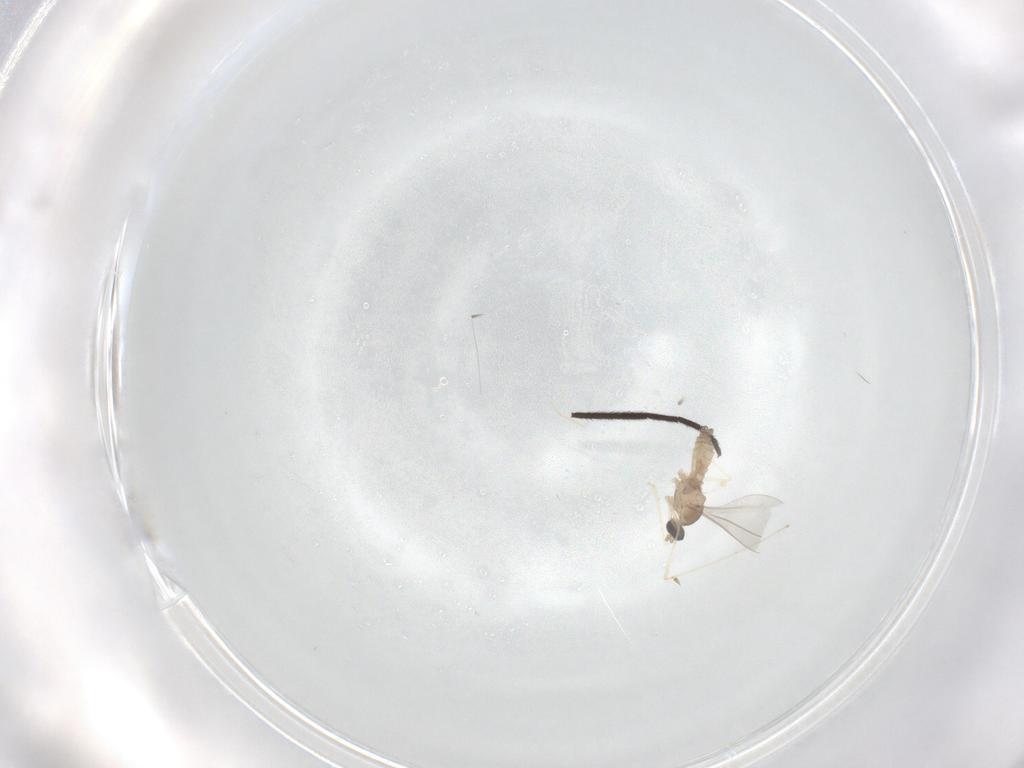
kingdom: Animalia
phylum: Arthropoda
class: Insecta
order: Diptera
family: Sciaridae
